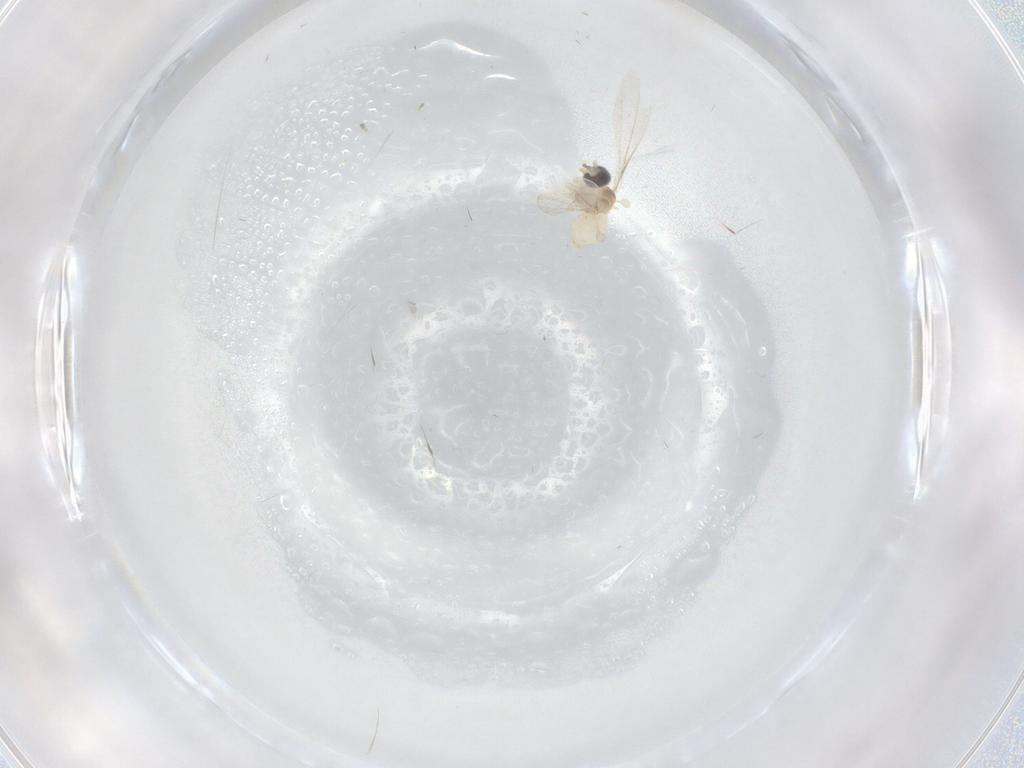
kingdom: Animalia
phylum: Arthropoda
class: Insecta
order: Diptera
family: Cecidomyiidae
